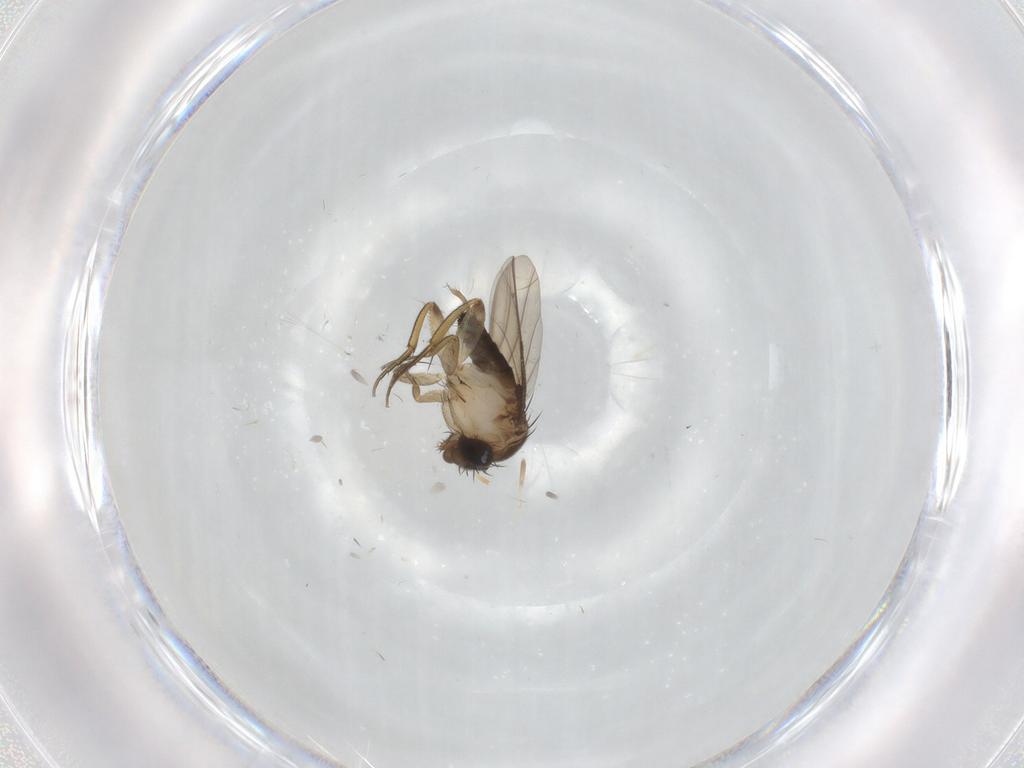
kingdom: Animalia
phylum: Arthropoda
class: Insecta
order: Diptera
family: Phoridae
